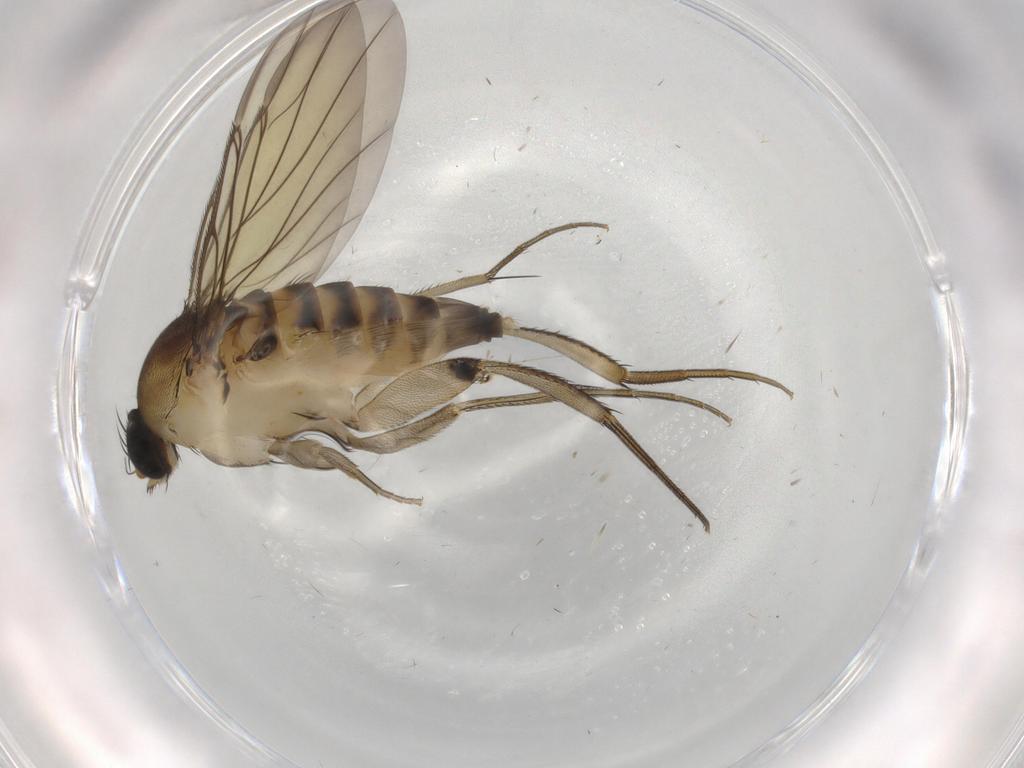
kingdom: Animalia
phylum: Arthropoda
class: Insecta
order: Diptera
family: Phoridae
